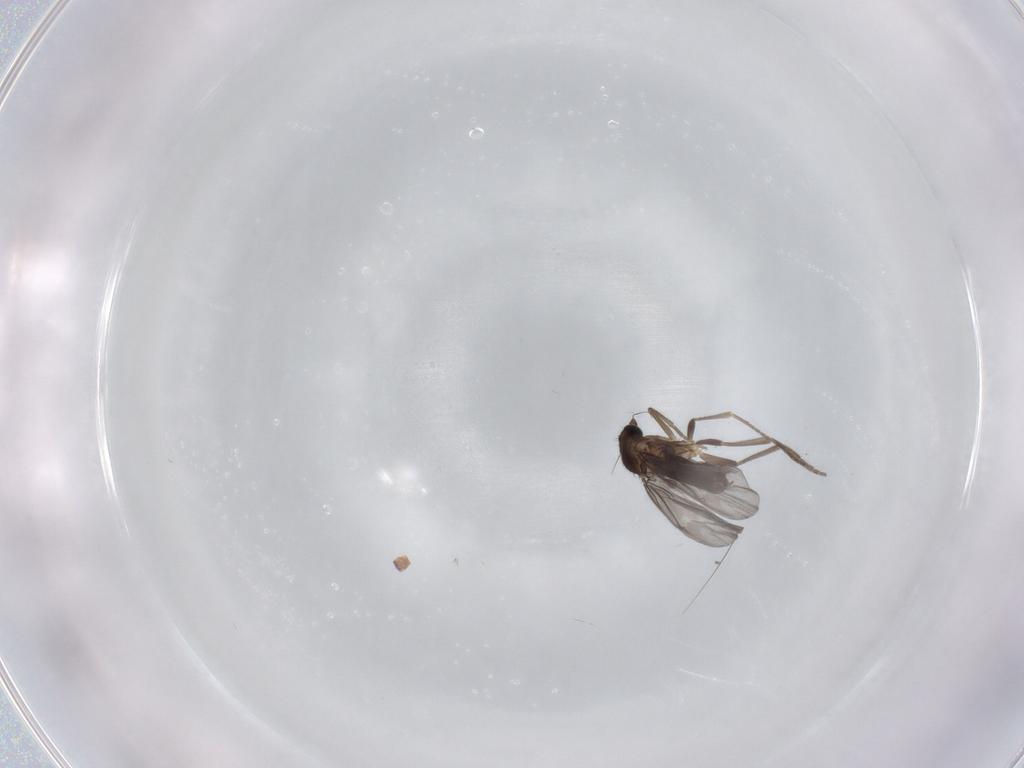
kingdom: Animalia
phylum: Arthropoda
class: Insecta
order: Diptera
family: Phoridae
